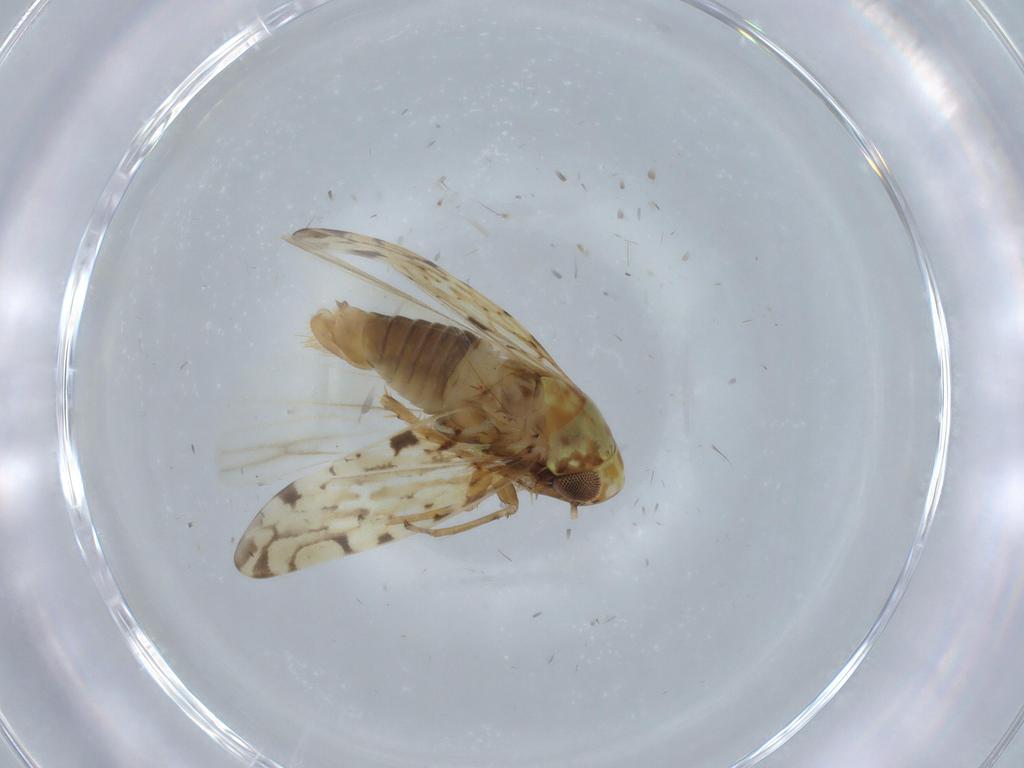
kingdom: Animalia
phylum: Arthropoda
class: Insecta
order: Hemiptera
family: Cicadellidae
